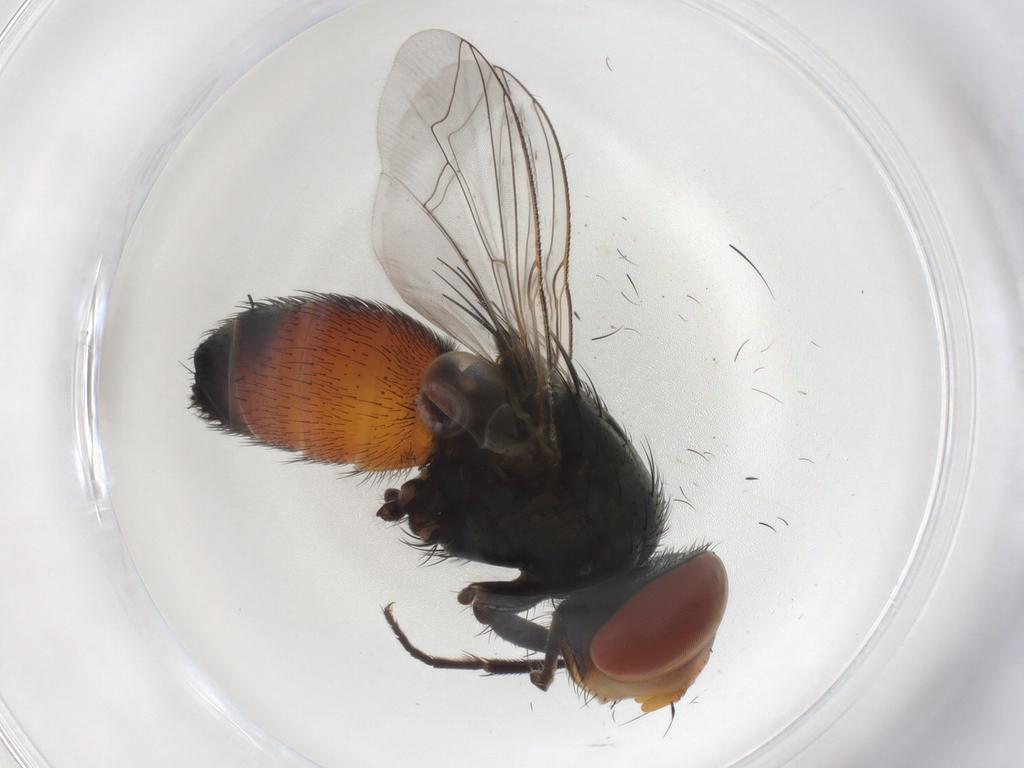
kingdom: Animalia
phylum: Arthropoda
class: Insecta
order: Diptera
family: Sarcophagidae
